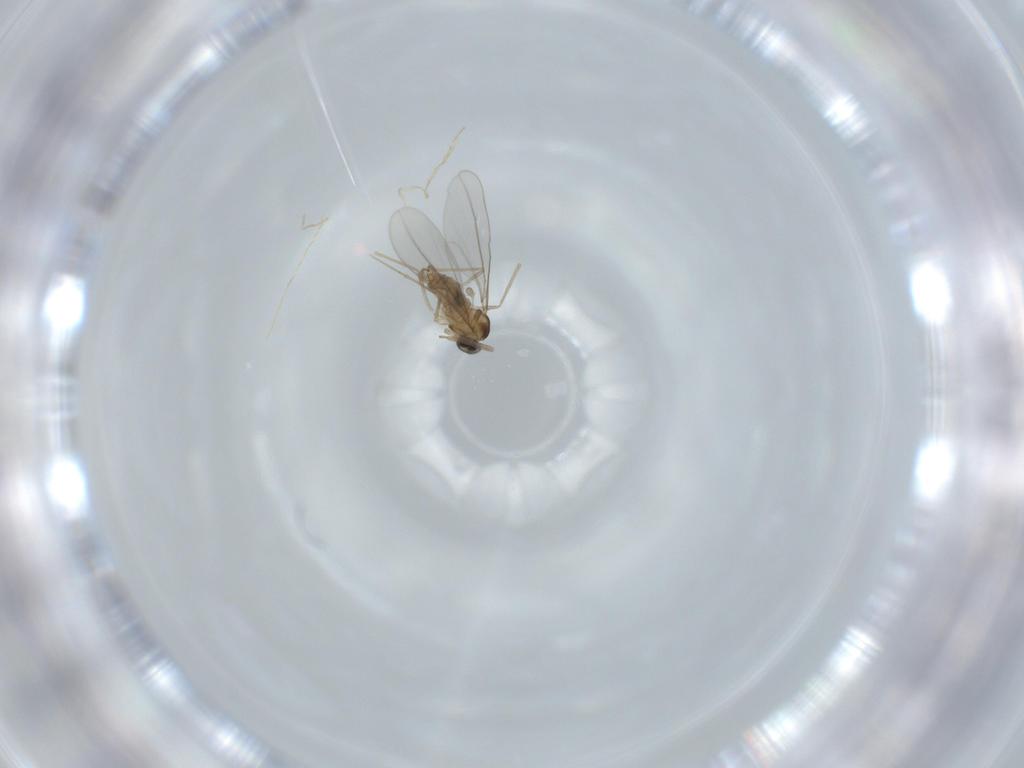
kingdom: Animalia
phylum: Arthropoda
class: Insecta
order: Diptera
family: Cecidomyiidae
